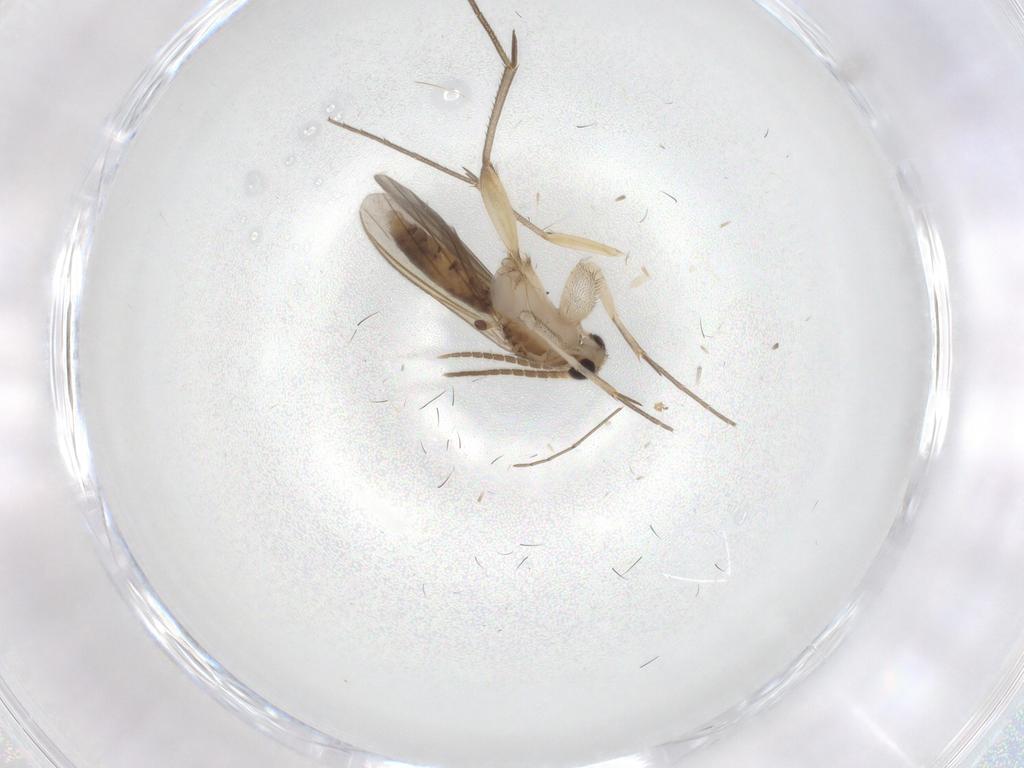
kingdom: Animalia
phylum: Arthropoda
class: Insecta
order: Diptera
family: Mycetophilidae
